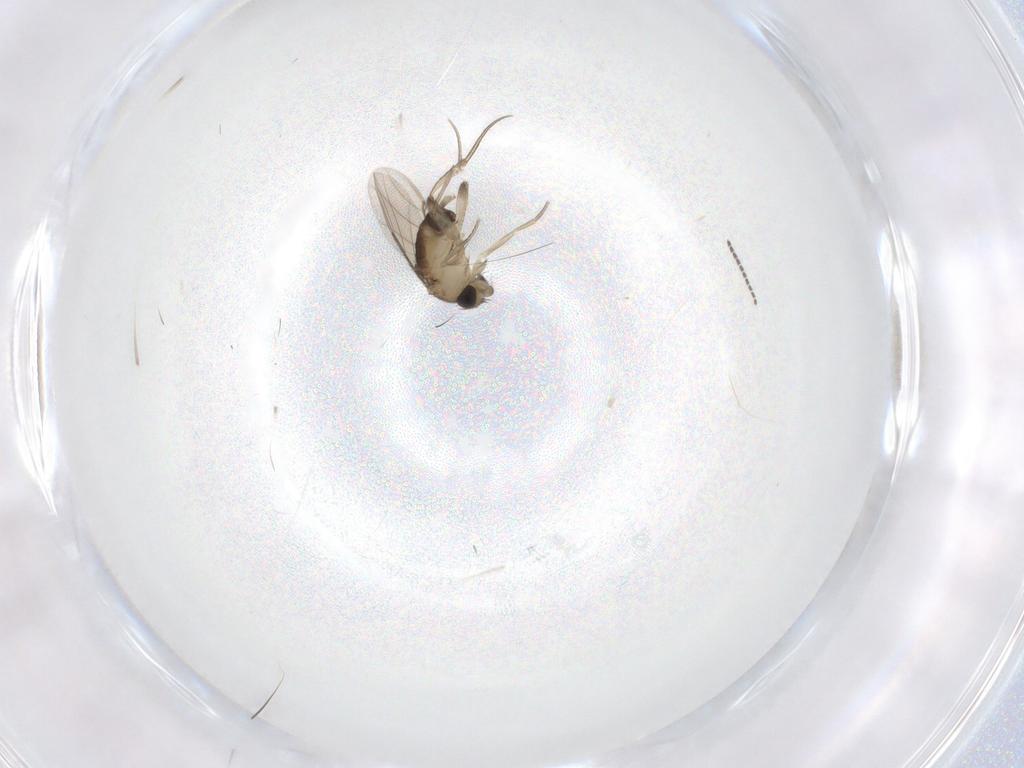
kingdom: Animalia
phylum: Arthropoda
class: Insecta
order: Diptera
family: Sciaridae
